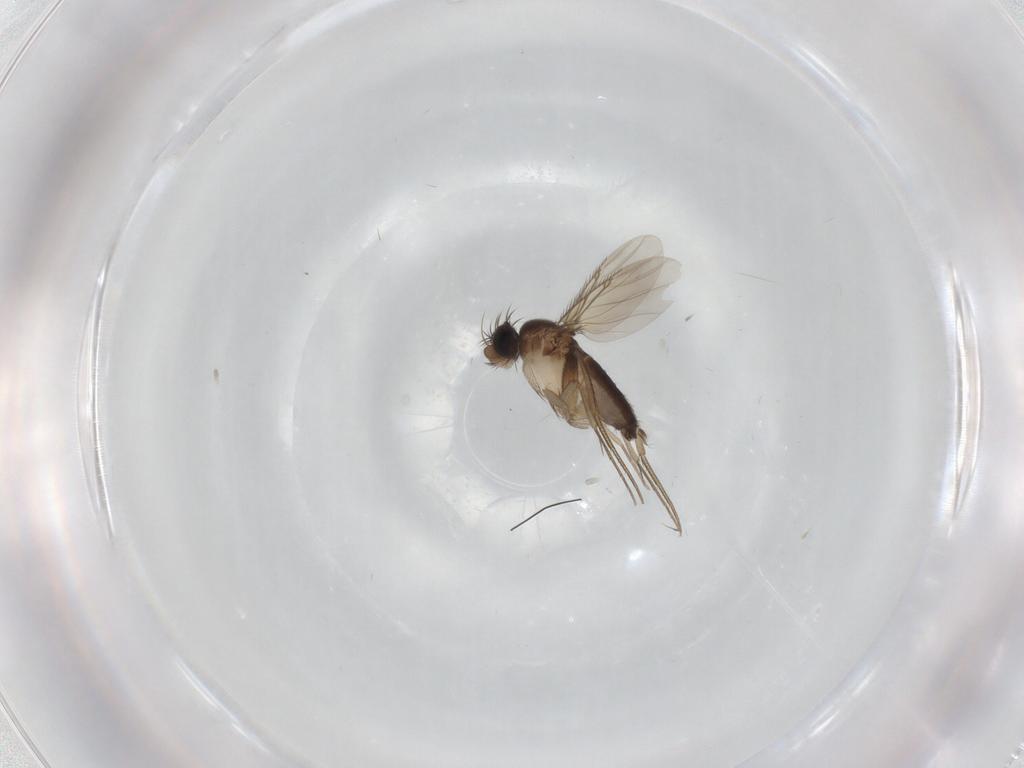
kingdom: Animalia
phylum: Arthropoda
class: Insecta
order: Diptera
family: Phoridae
